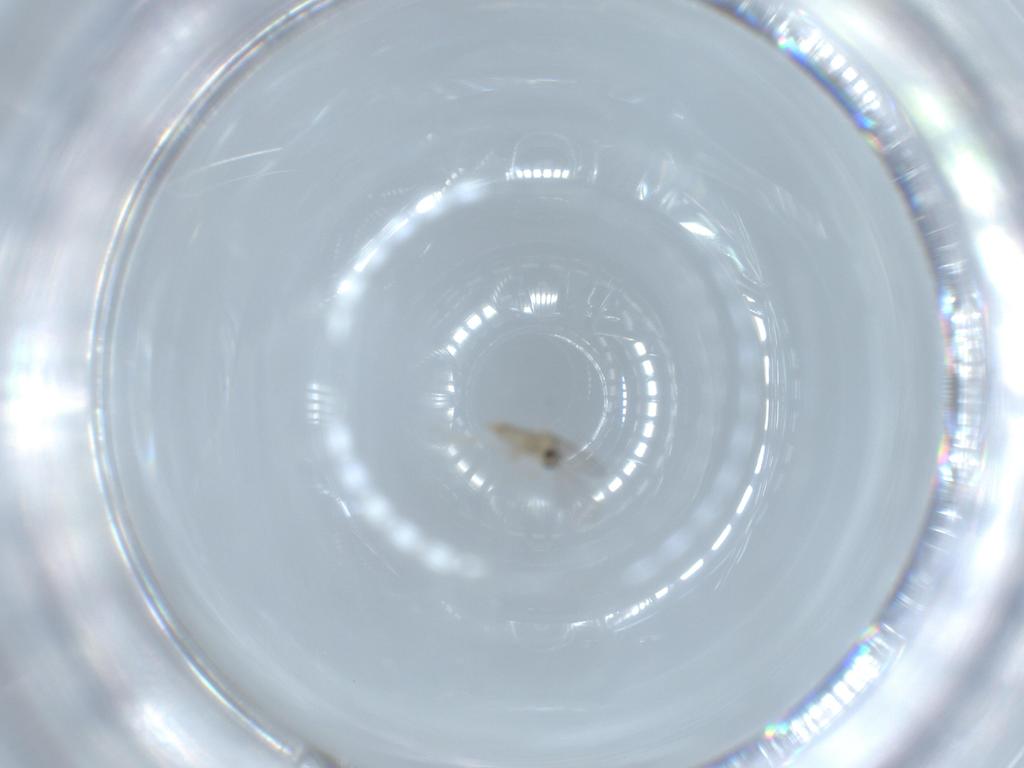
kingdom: Animalia
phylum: Arthropoda
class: Insecta
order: Diptera
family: Cecidomyiidae
